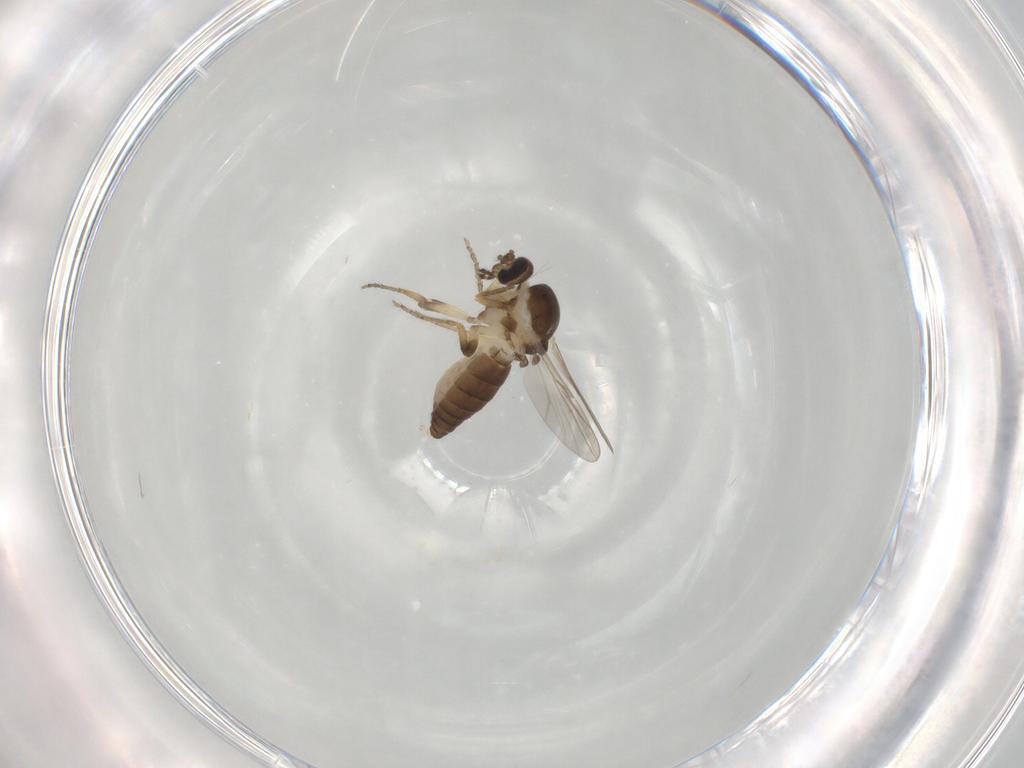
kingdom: Animalia
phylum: Arthropoda
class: Insecta
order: Diptera
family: Ceratopogonidae
